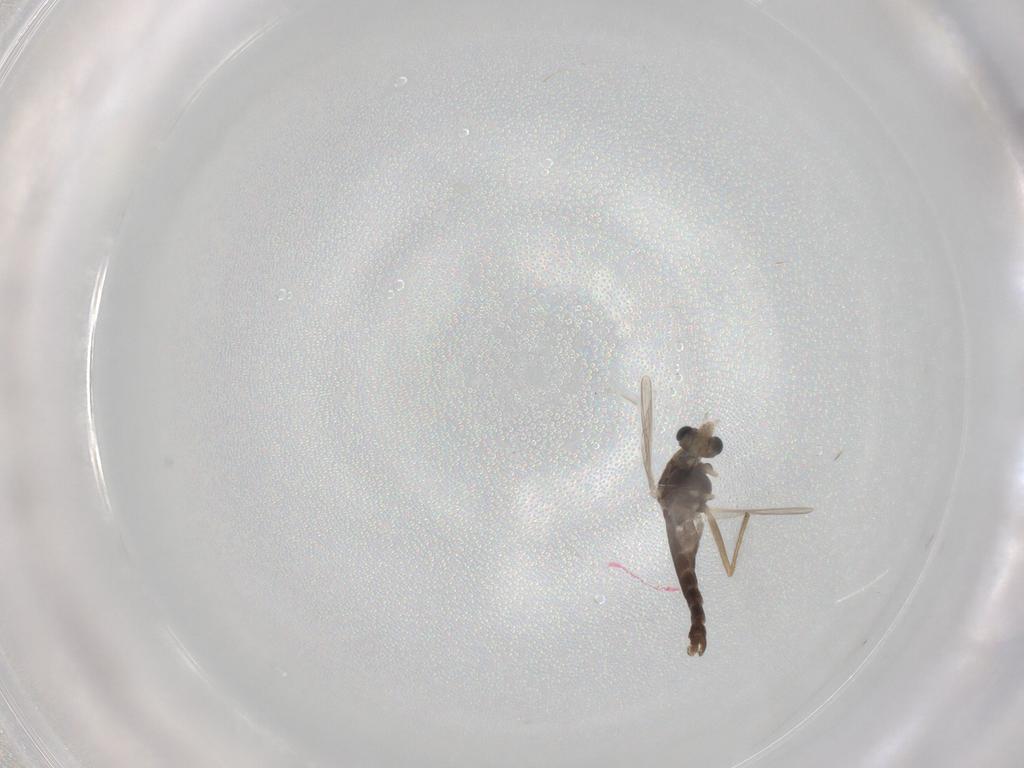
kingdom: Animalia
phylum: Arthropoda
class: Insecta
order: Diptera
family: Chironomidae
